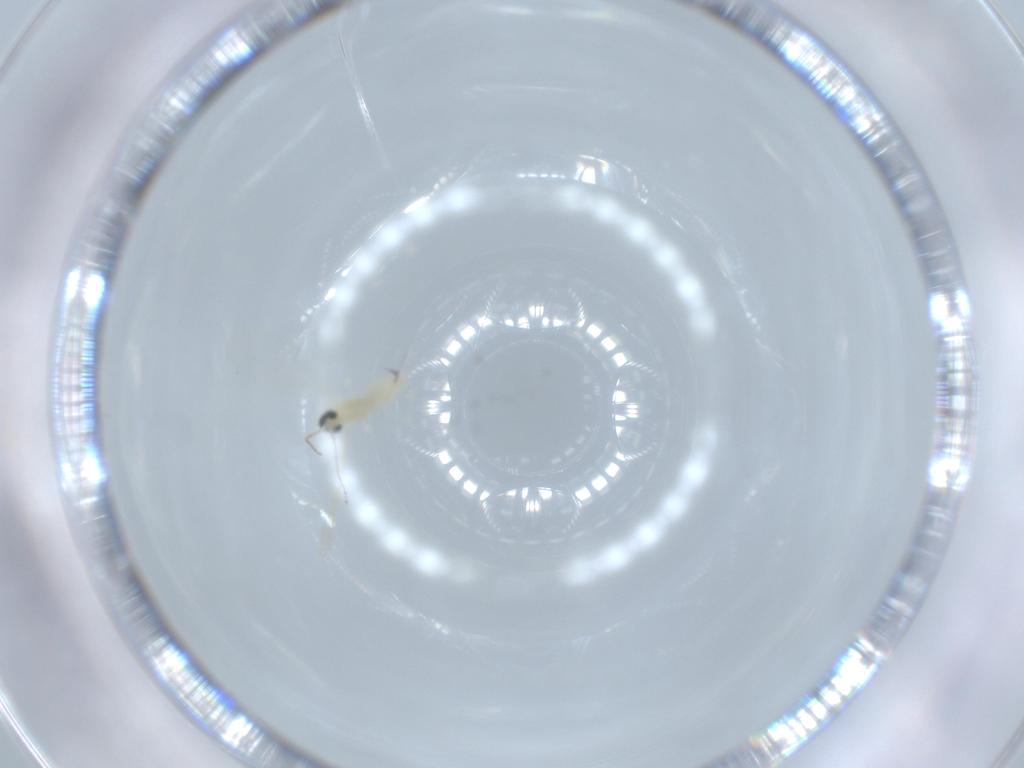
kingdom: Animalia
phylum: Arthropoda
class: Insecta
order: Diptera
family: Cecidomyiidae
